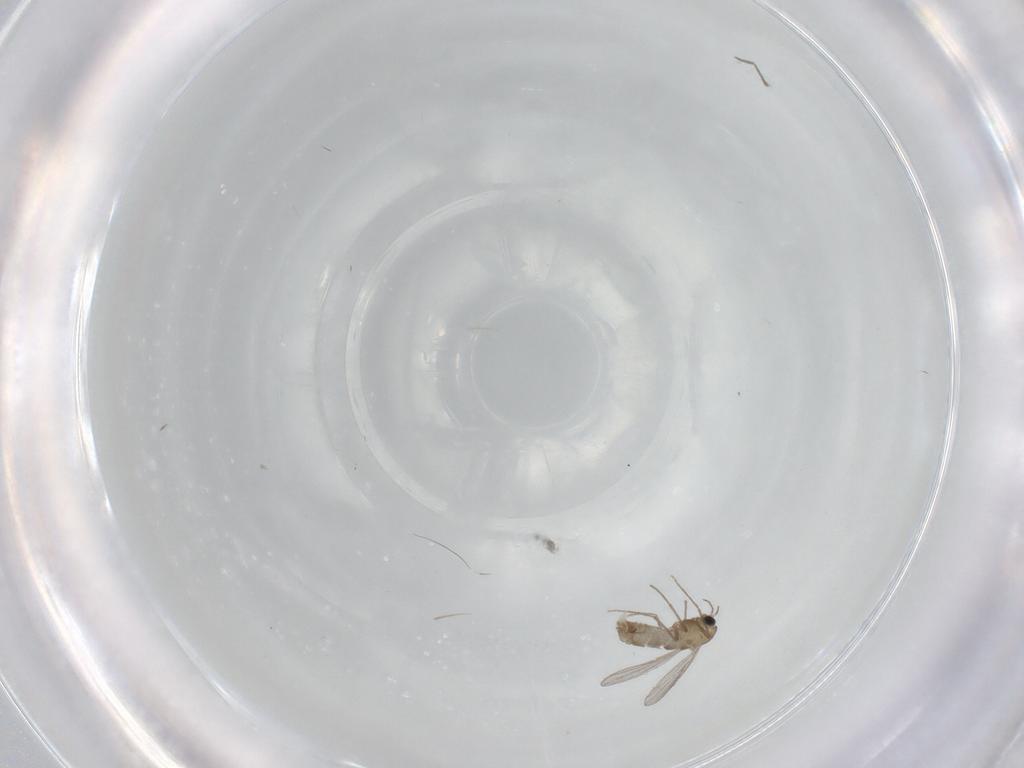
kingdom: Animalia
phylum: Arthropoda
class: Insecta
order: Diptera
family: Chironomidae
